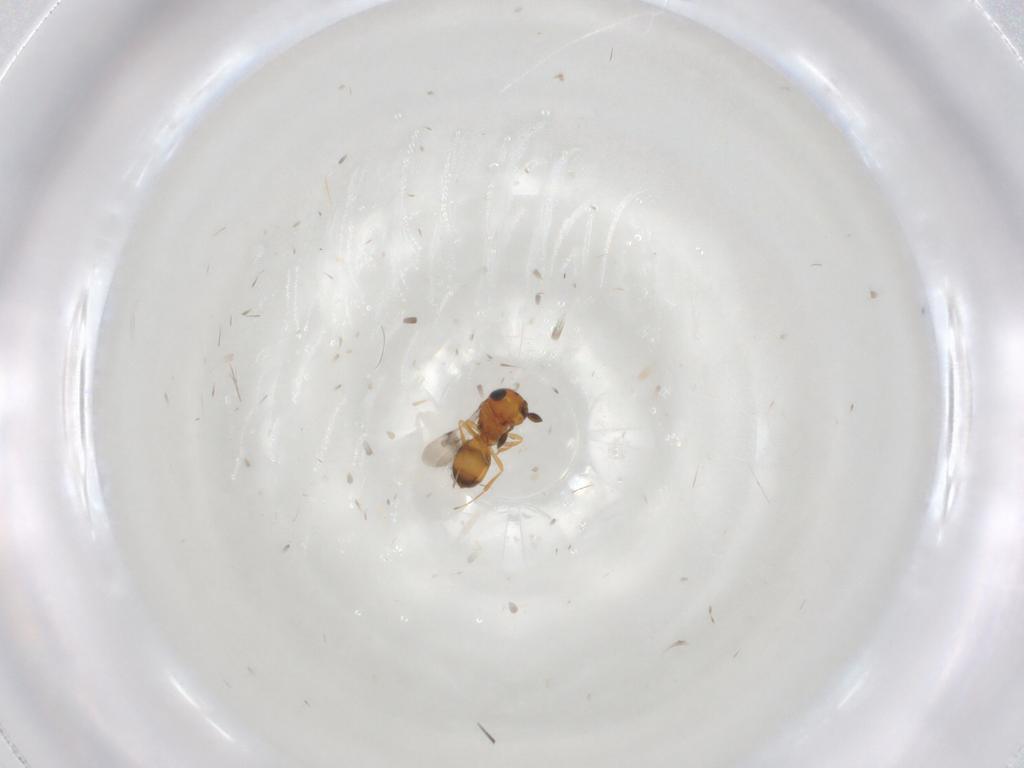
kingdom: Animalia
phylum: Arthropoda
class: Insecta
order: Hymenoptera
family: Scelionidae
